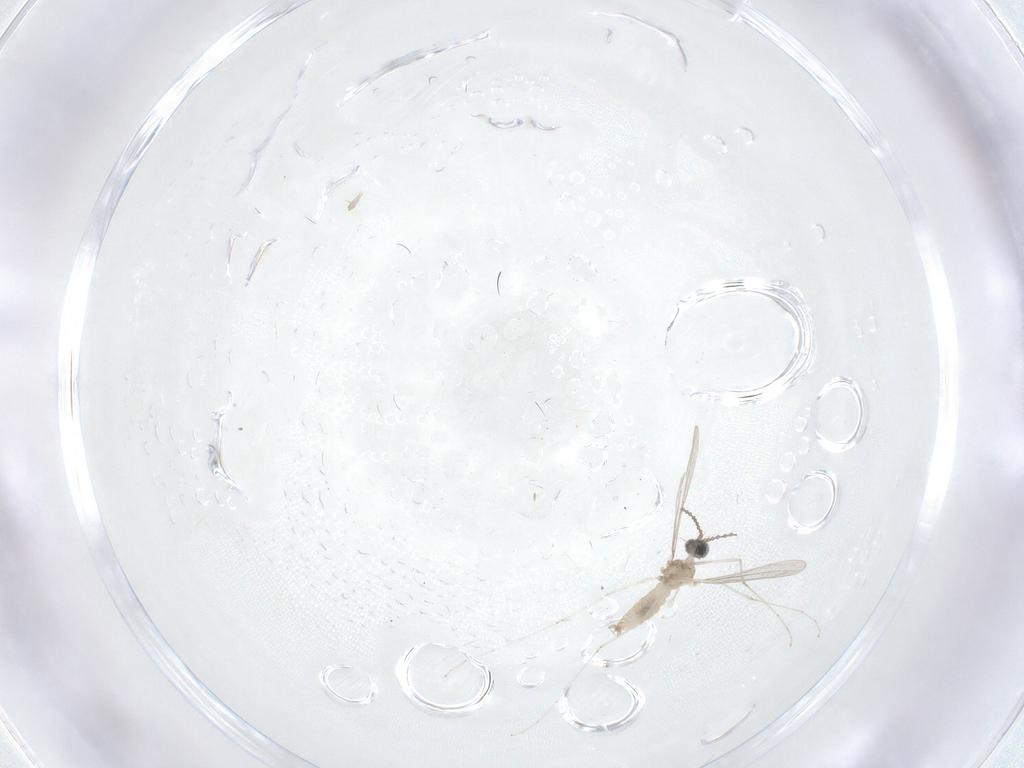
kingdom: Animalia
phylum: Arthropoda
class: Insecta
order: Diptera
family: Cecidomyiidae
